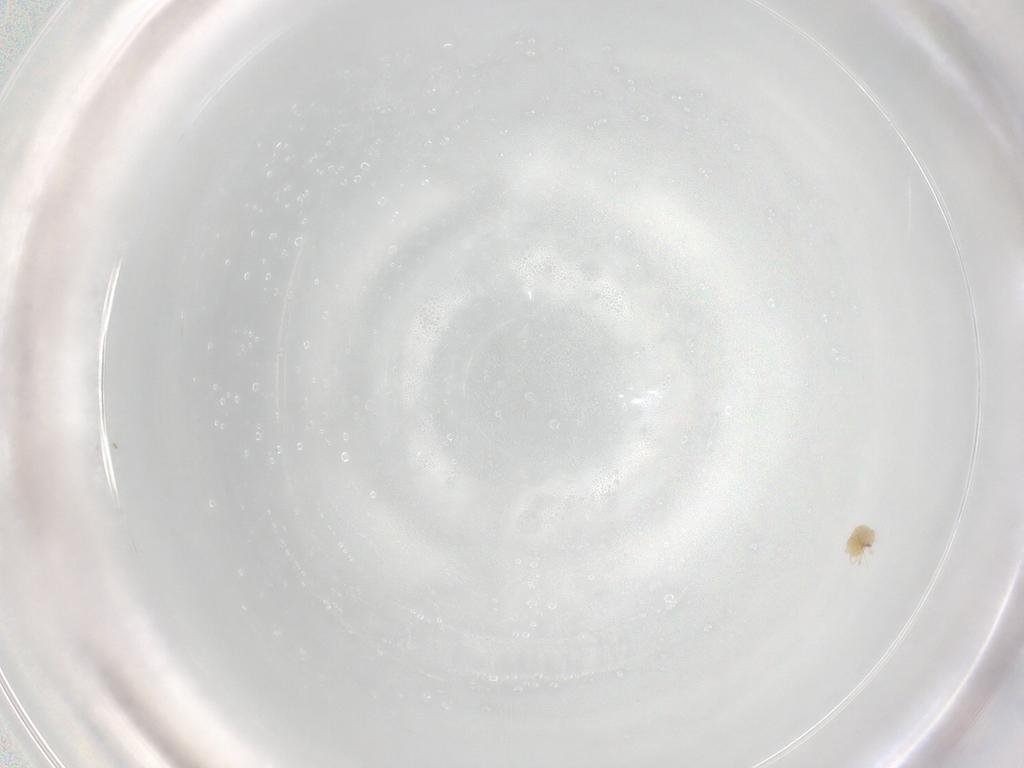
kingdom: Animalia
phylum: Arthropoda
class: Arachnida
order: Trombidiformes
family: Tetranychidae
